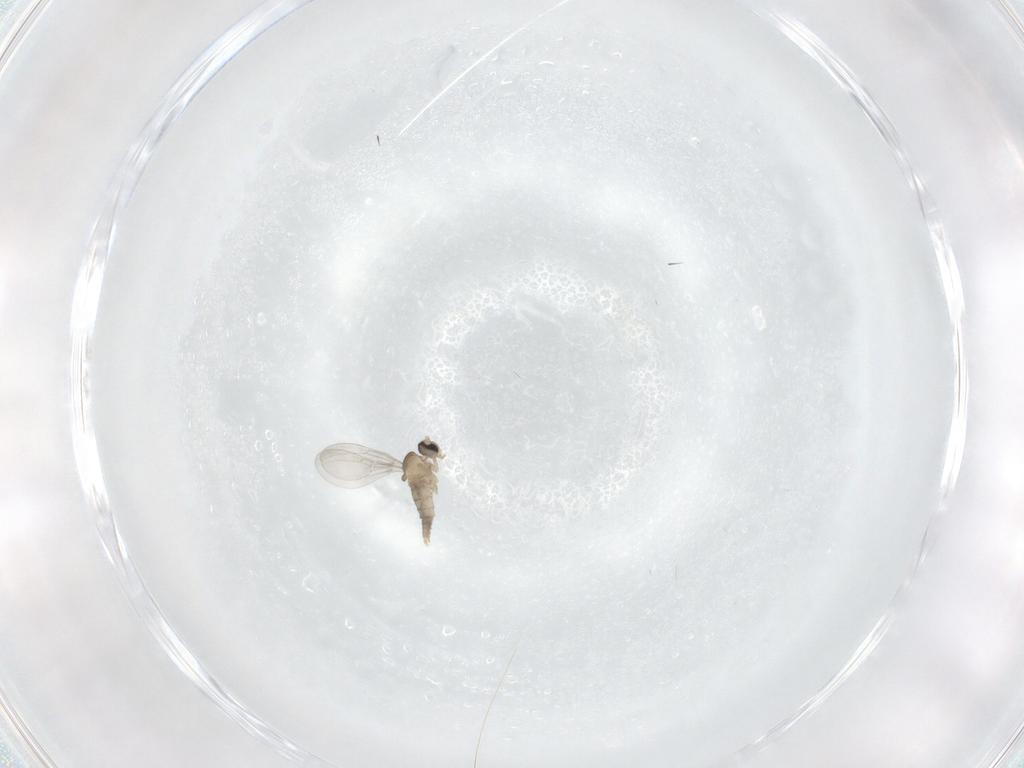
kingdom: Animalia
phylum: Arthropoda
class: Insecta
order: Diptera
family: Cecidomyiidae
